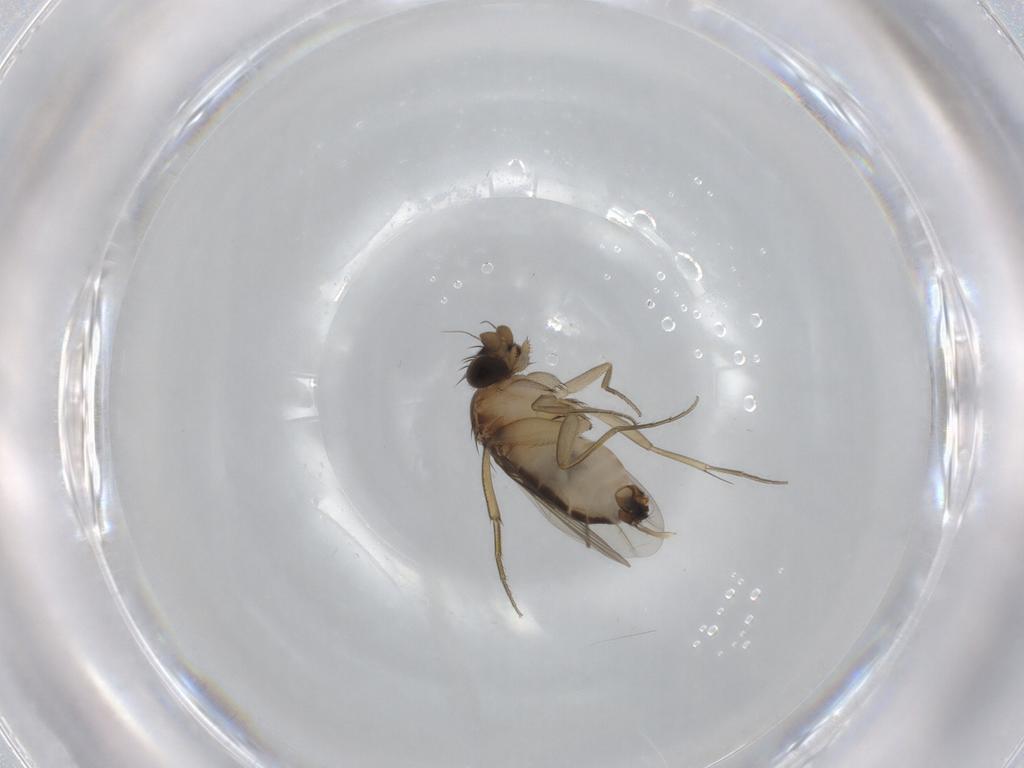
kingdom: Animalia
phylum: Arthropoda
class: Insecta
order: Diptera
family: Phoridae
